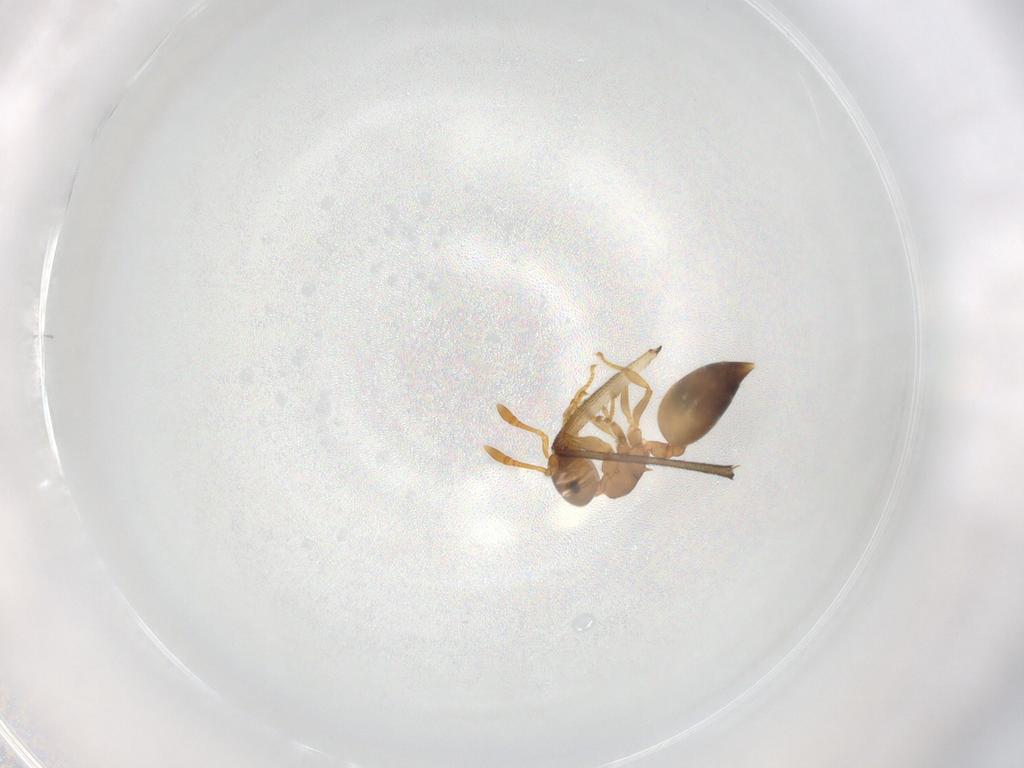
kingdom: Animalia
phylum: Arthropoda
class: Insecta
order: Hymenoptera
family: Formicidae
